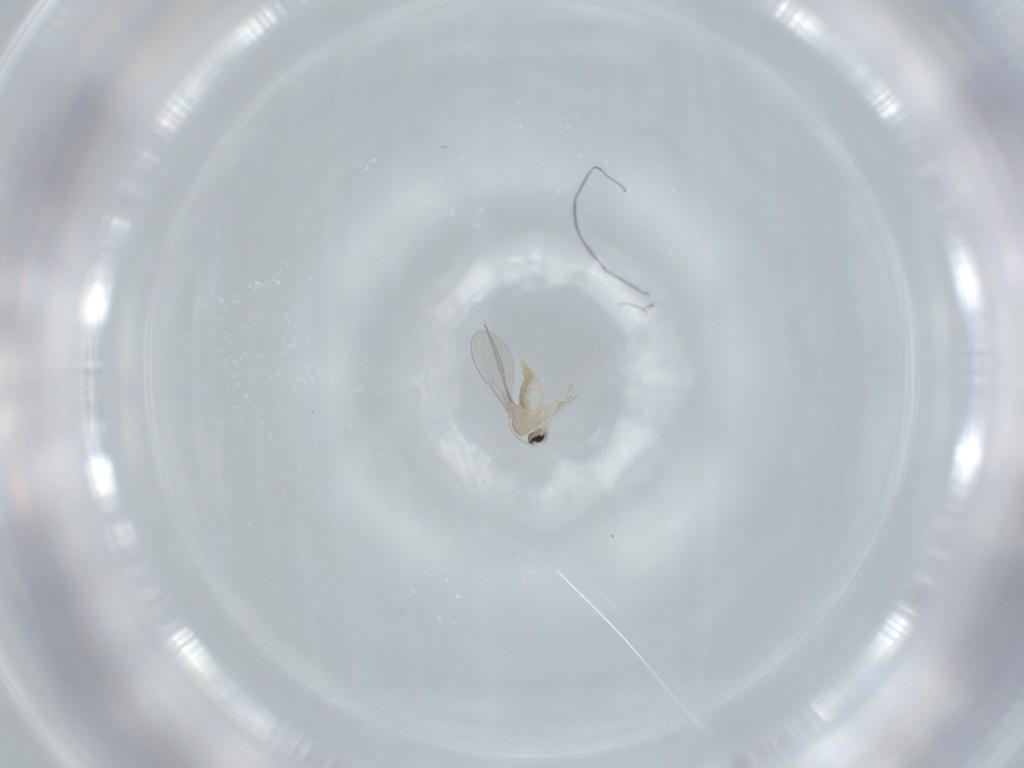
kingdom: Animalia
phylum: Arthropoda
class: Insecta
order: Diptera
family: Cecidomyiidae
